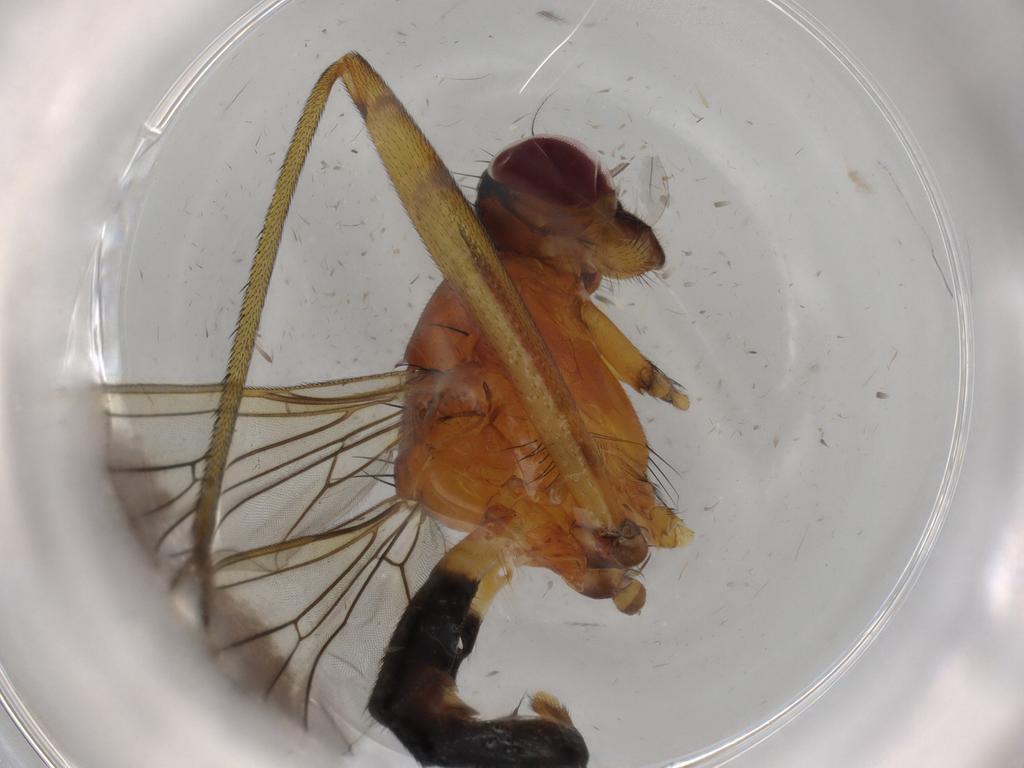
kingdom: Animalia
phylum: Arthropoda
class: Insecta
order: Diptera
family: Micropezidae
